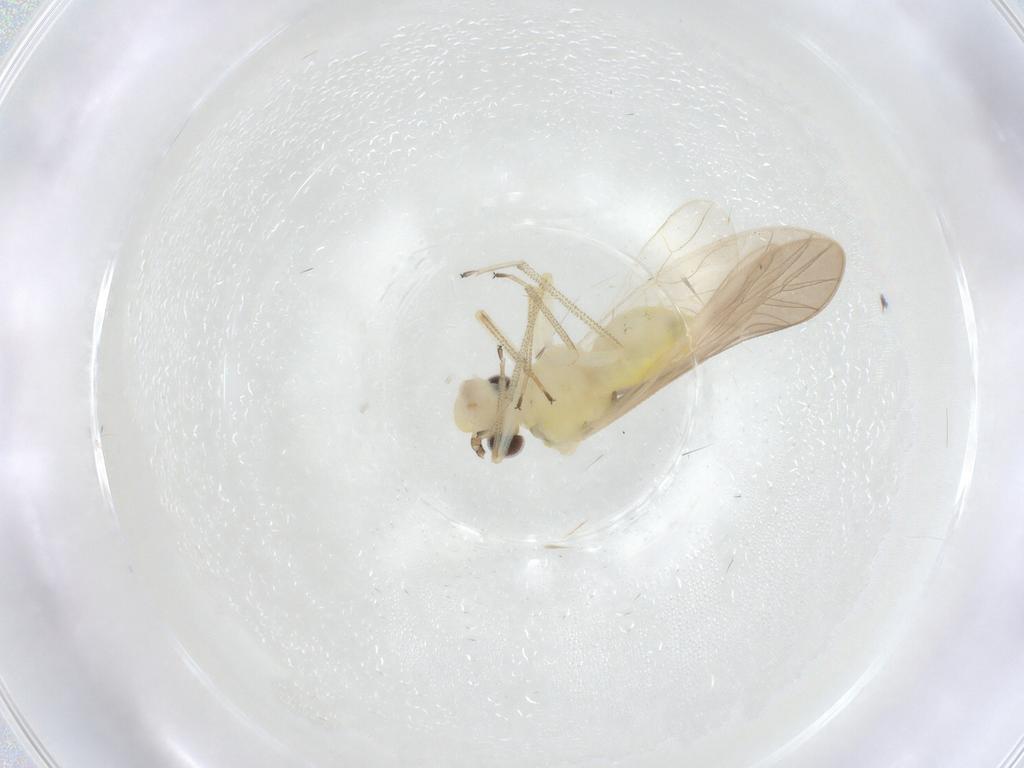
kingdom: Animalia
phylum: Arthropoda
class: Insecta
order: Psocodea
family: Caeciliusidae
